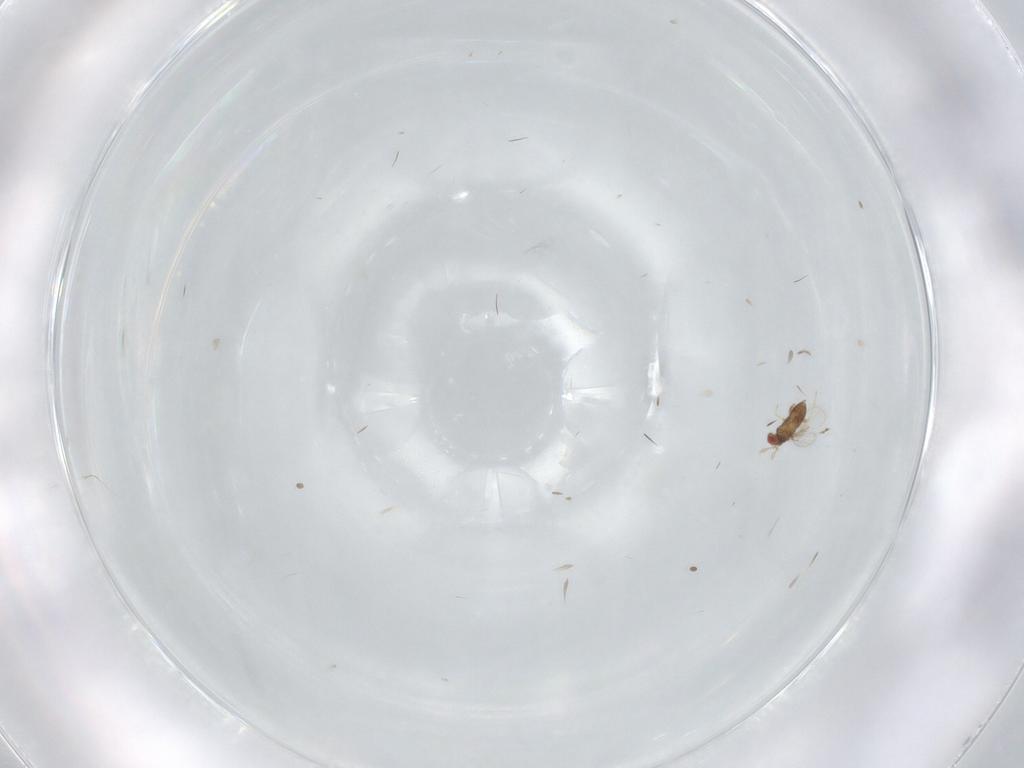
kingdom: Animalia
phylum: Arthropoda
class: Insecta
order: Hymenoptera
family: Trichogrammatidae
